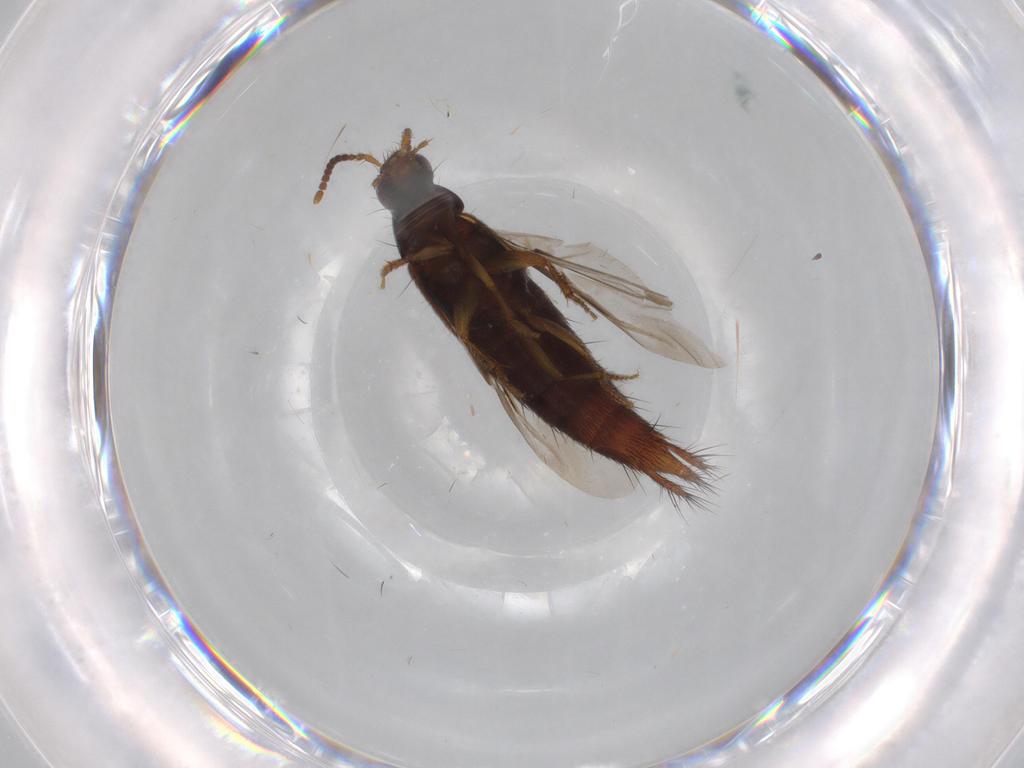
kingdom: Animalia
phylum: Arthropoda
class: Insecta
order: Coleoptera
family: Staphylinidae
